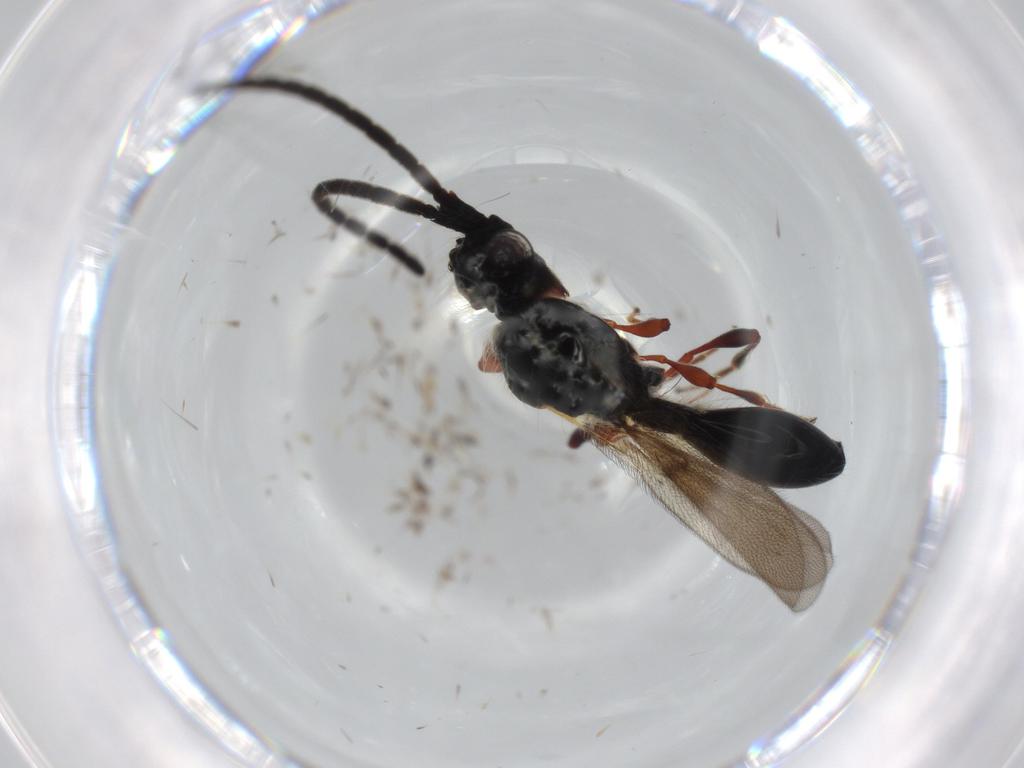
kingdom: Animalia
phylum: Arthropoda
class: Insecta
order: Hymenoptera
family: Diapriidae
